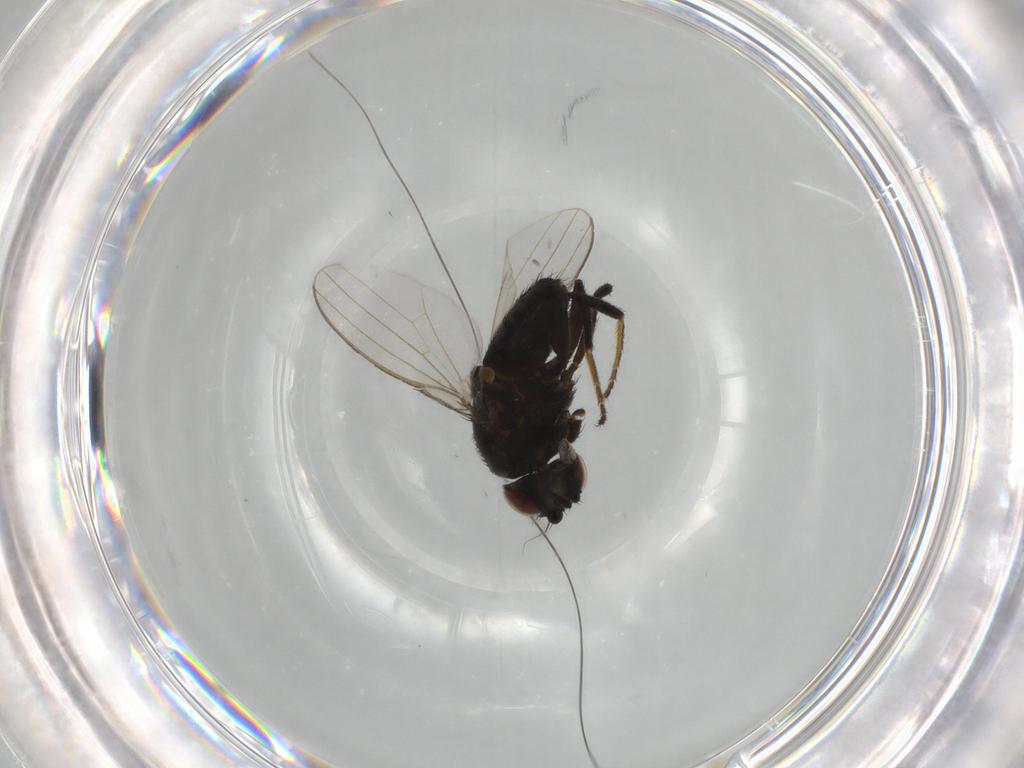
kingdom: Animalia
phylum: Arthropoda
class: Insecta
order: Diptera
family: Milichiidae
